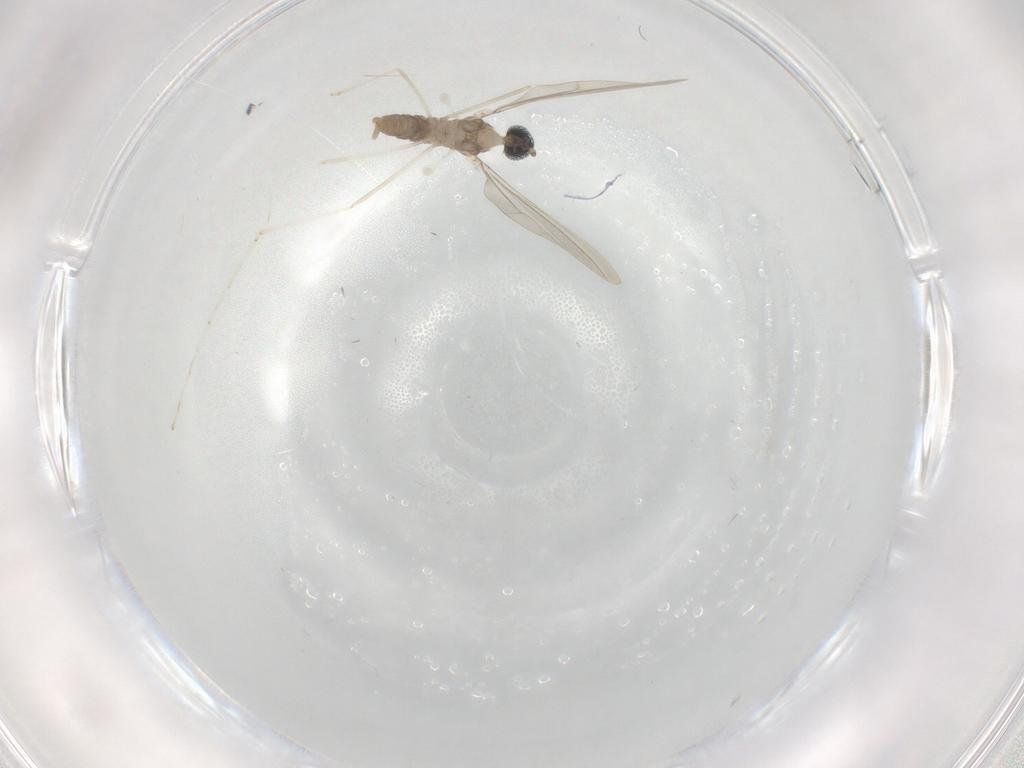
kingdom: Animalia
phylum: Arthropoda
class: Insecta
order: Diptera
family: Cecidomyiidae
